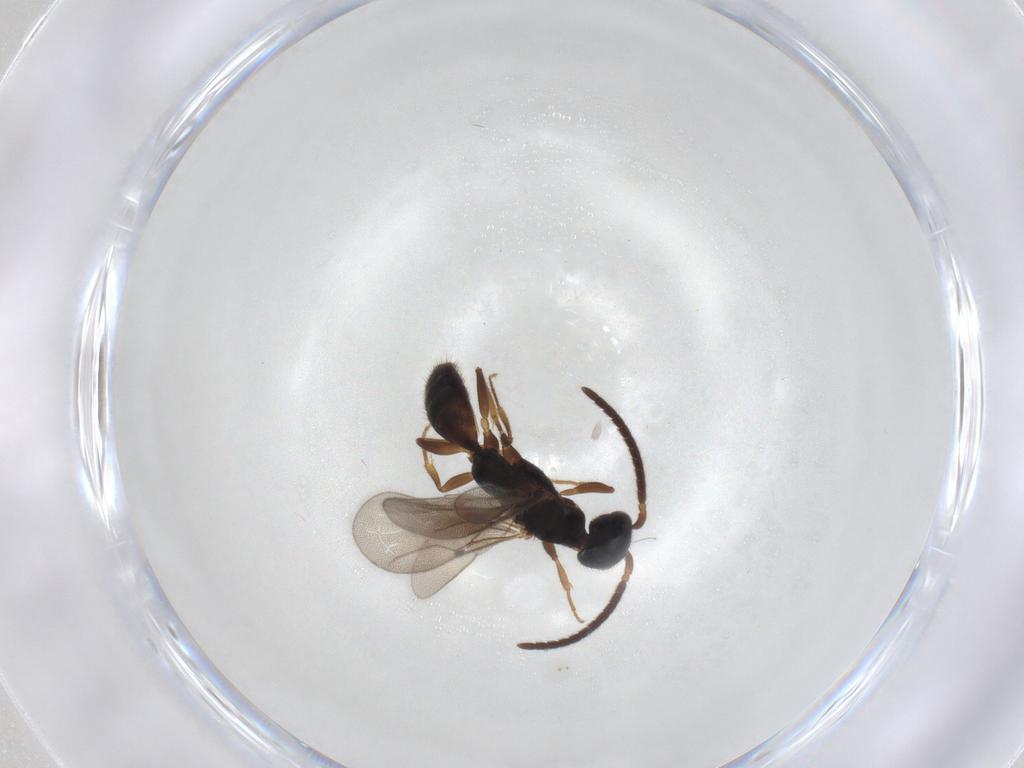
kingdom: Animalia
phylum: Arthropoda
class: Insecta
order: Hymenoptera
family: Bethylidae
